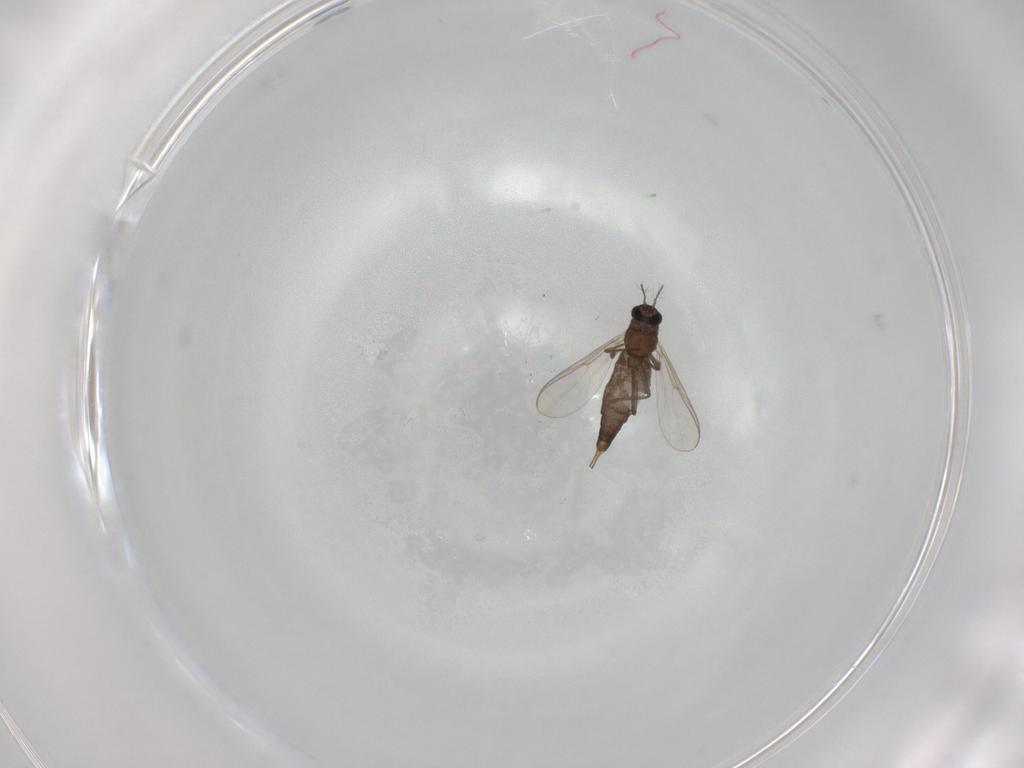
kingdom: Animalia
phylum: Arthropoda
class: Insecta
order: Diptera
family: Chironomidae
